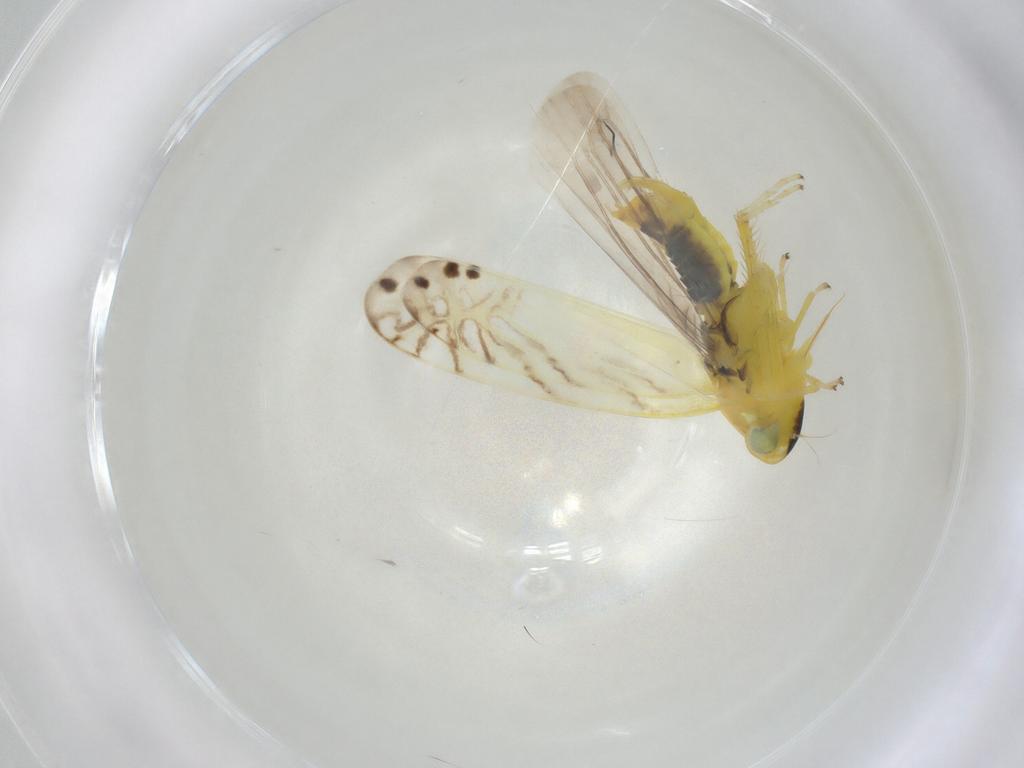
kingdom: Animalia
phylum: Arthropoda
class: Insecta
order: Hemiptera
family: Cicadellidae
